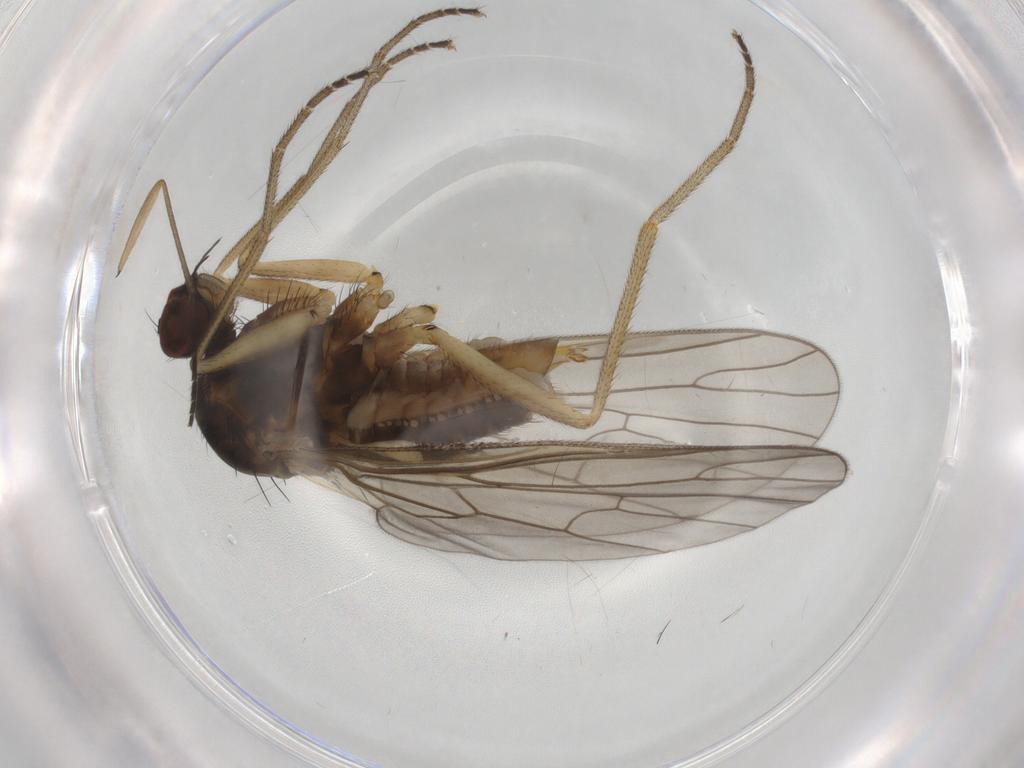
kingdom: Animalia
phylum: Arthropoda
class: Insecta
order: Diptera
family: Brachystomatidae
